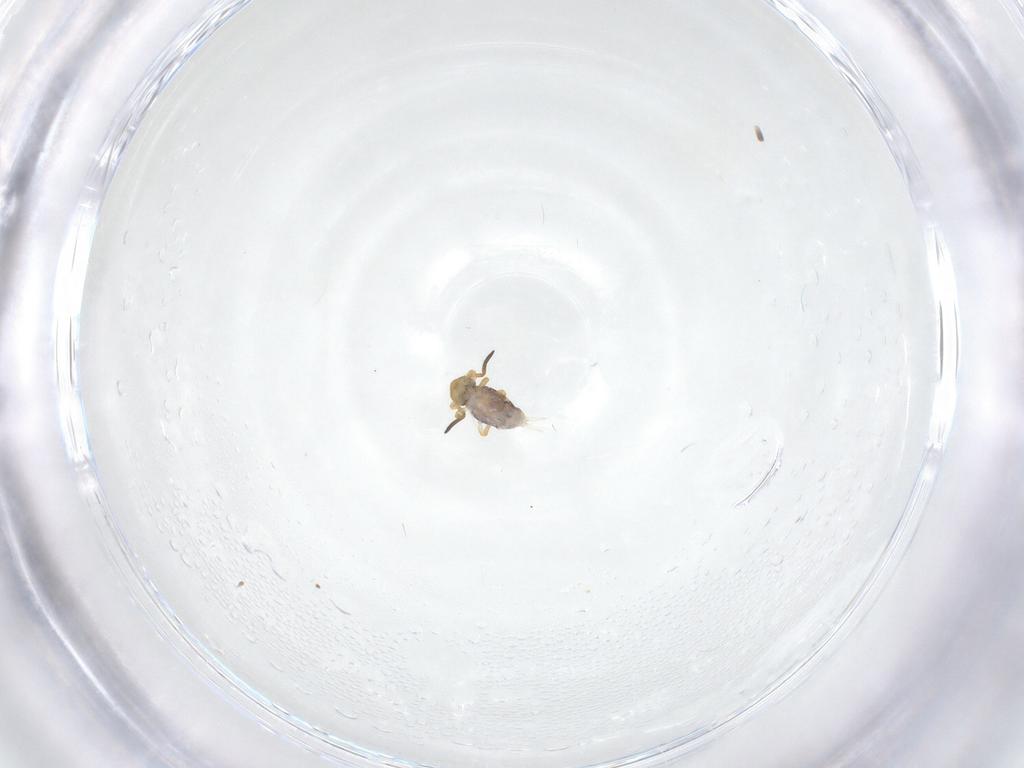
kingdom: Animalia
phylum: Arthropoda
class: Collembola
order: Symphypleona
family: Katiannidae
